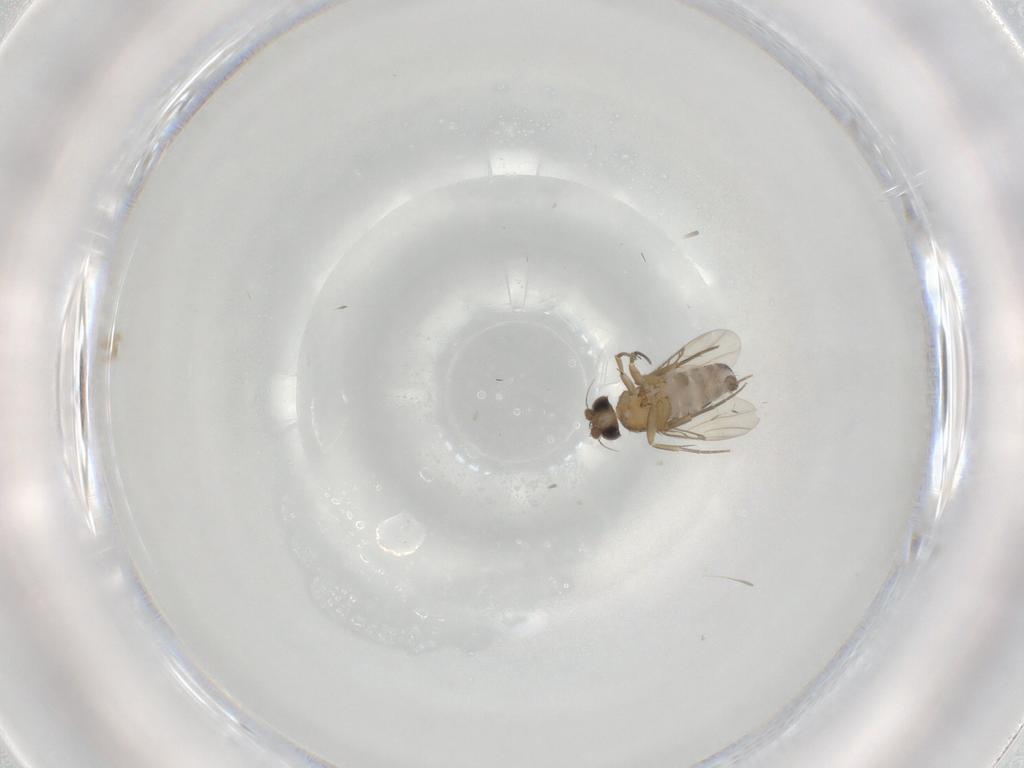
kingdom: Animalia
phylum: Arthropoda
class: Insecta
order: Diptera
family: Phoridae
